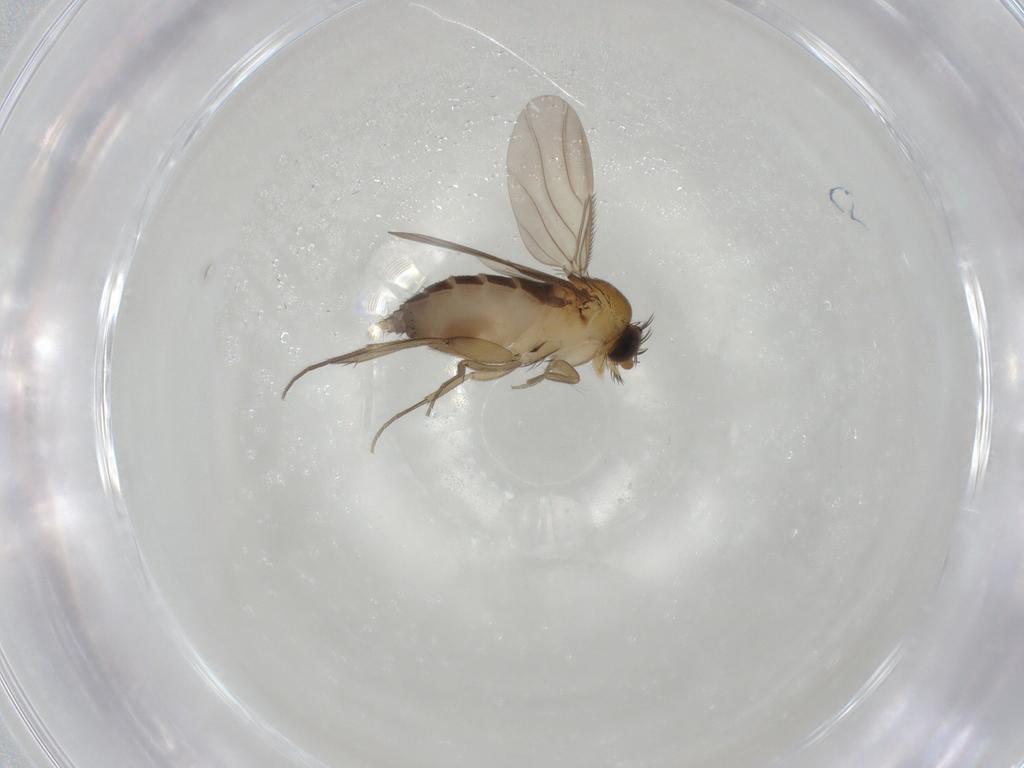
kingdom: Animalia
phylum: Arthropoda
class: Insecta
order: Diptera
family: Phoridae
